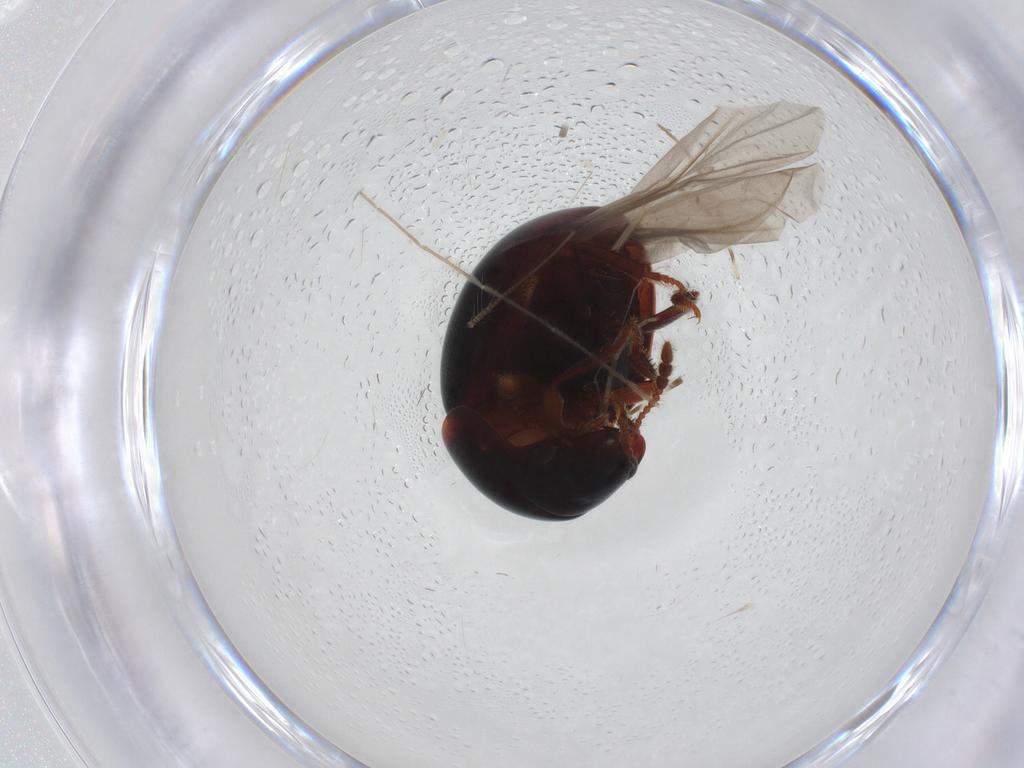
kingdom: Animalia
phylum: Arthropoda
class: Insecta
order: Coleoptera
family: Leiodidae
